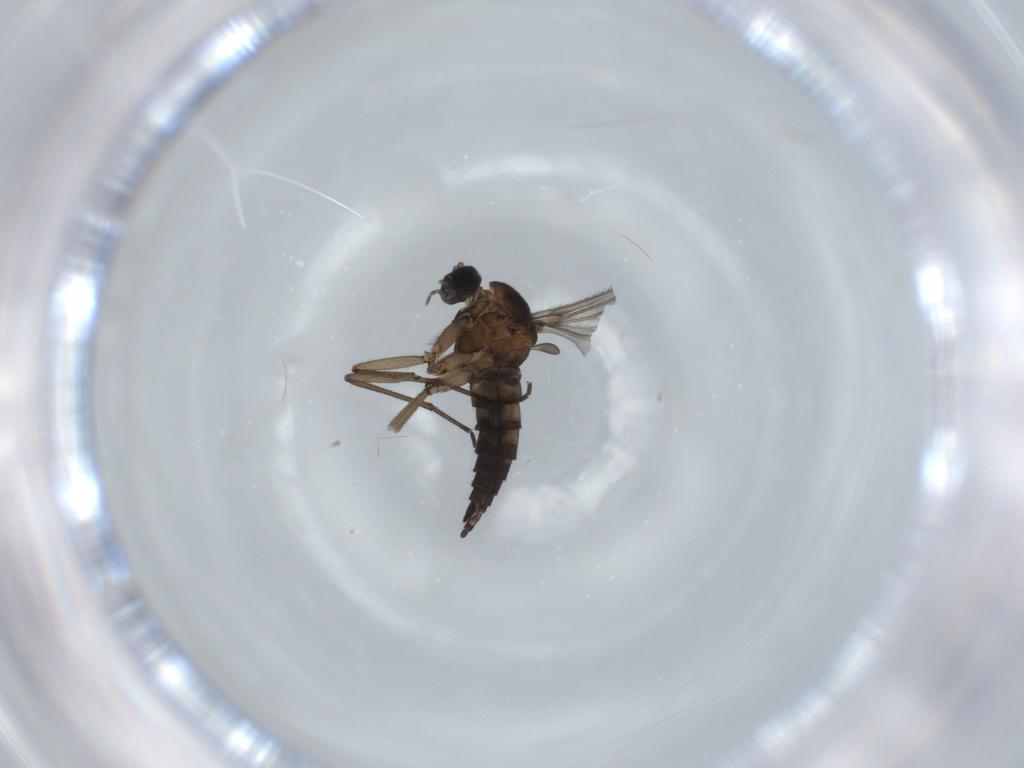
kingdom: Animalia
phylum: Arthropoda
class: Insecta
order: Diptera
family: Sciaridae
